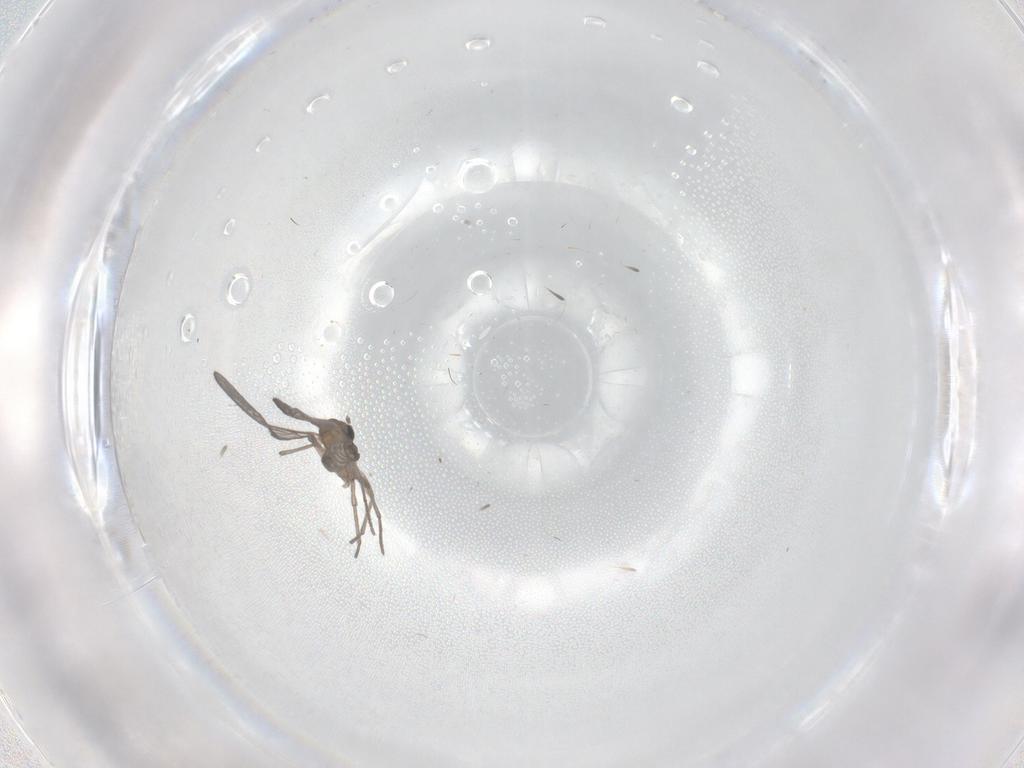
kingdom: Animalia
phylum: Arthropoda
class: Insecta
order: Diptera
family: Sciaridae
